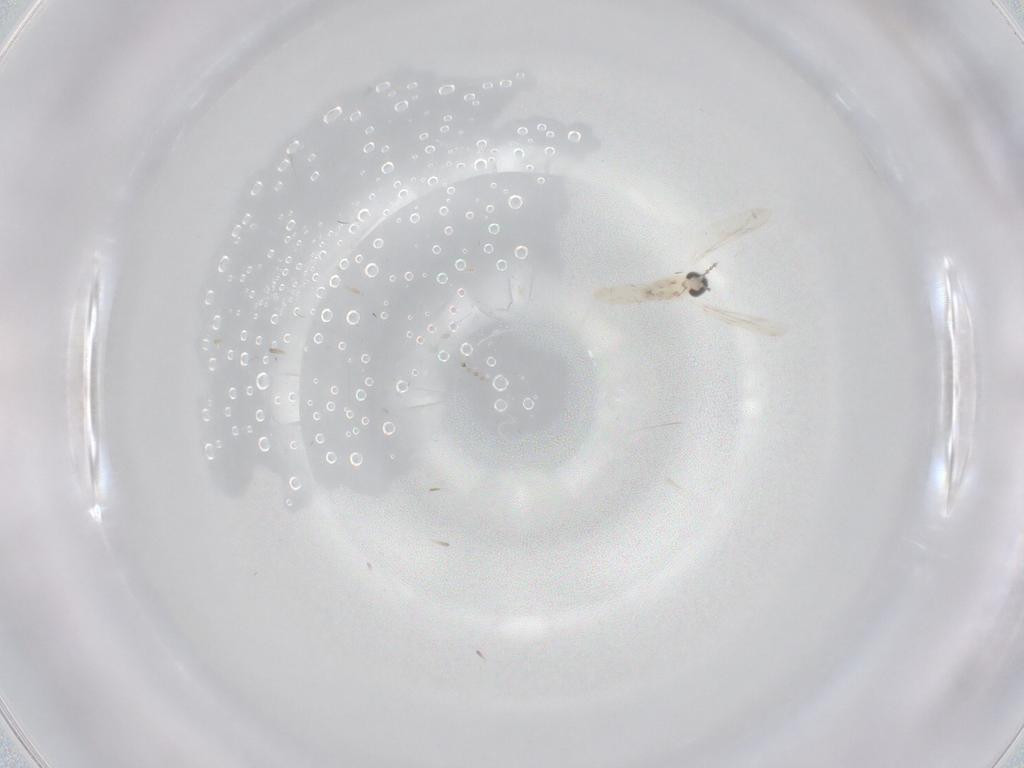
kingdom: Animalia
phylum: Arthropoda
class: Insecta
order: Diptera
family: Cecidomyiidae
